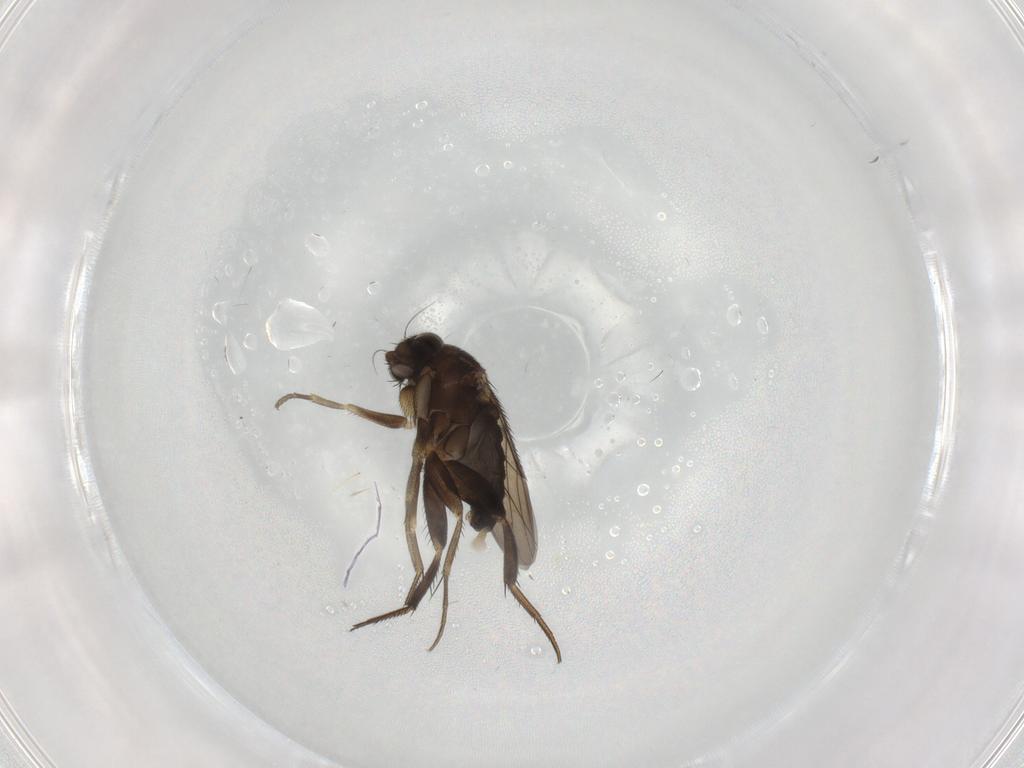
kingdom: Animalia
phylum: Arthropoda
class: Insecta
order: Diptera
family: Phoridae
